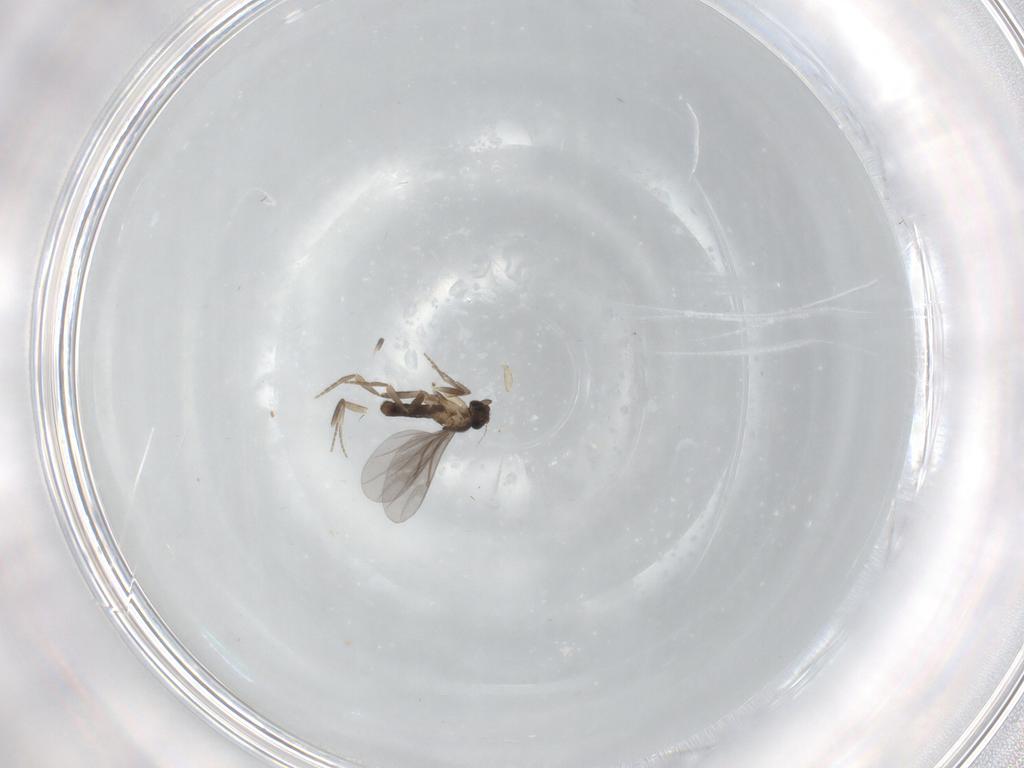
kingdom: Animalia
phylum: Arthropoda
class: Insecta
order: Diptera
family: Phoridae
